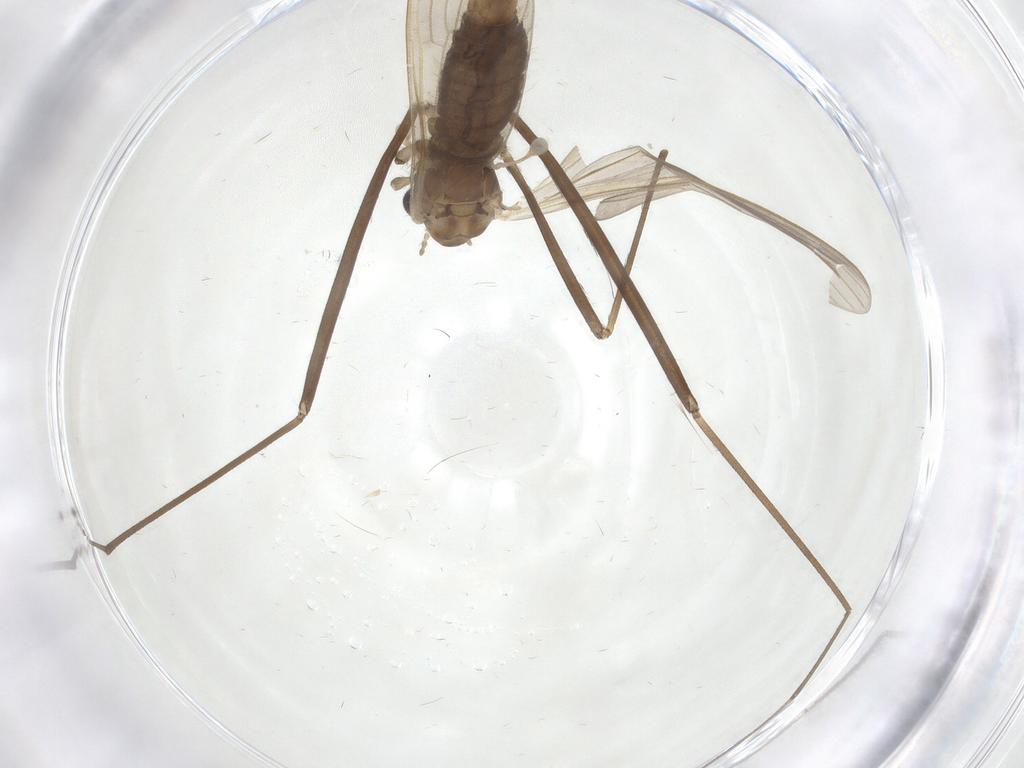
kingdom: Animalia
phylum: Arthropoda
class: Insecta
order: Diptera
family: Limoniidae
